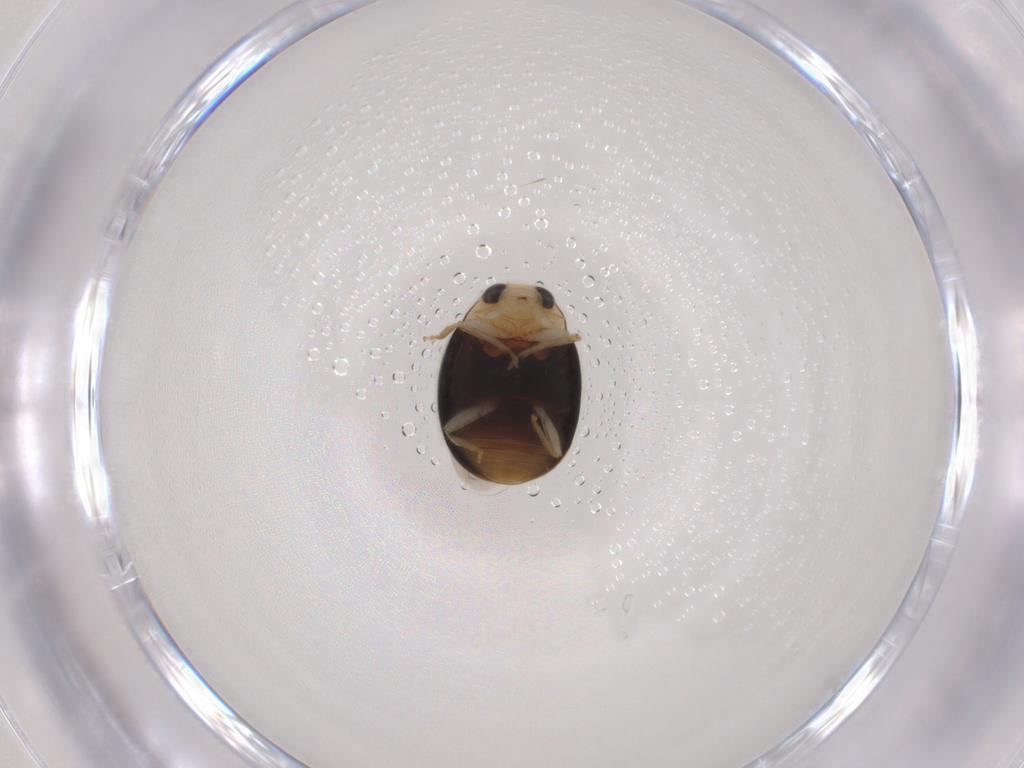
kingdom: Animalia
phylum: Arthropoda
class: Insecta
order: Coleoptera
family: Coccinellidae
